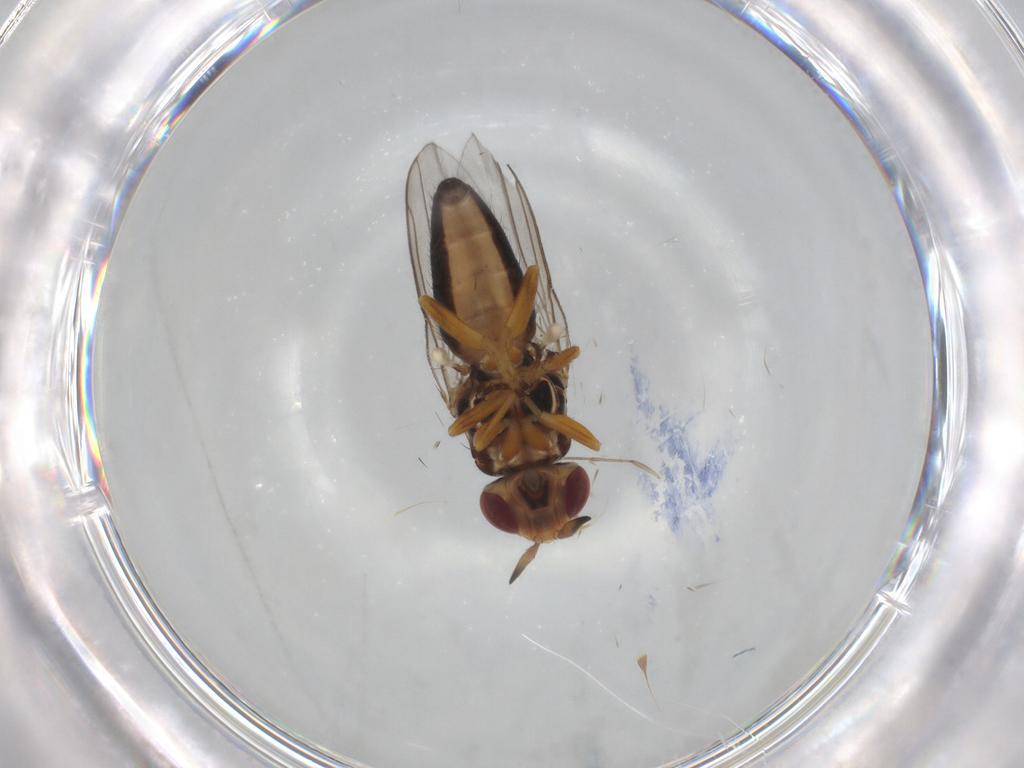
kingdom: Animalia
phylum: Arthropoda
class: Insecta
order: Diptera
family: Chloropidae
